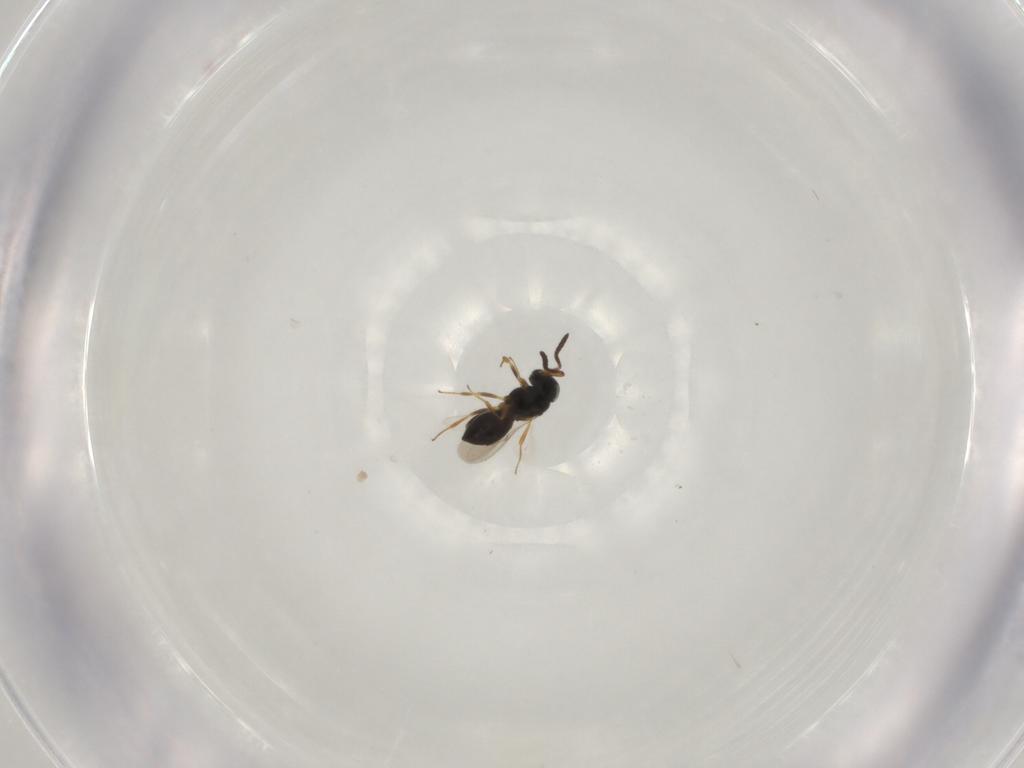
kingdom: Animalia
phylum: Arthropoda
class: Insecta
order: Hymenoptera
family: Scelionidae
